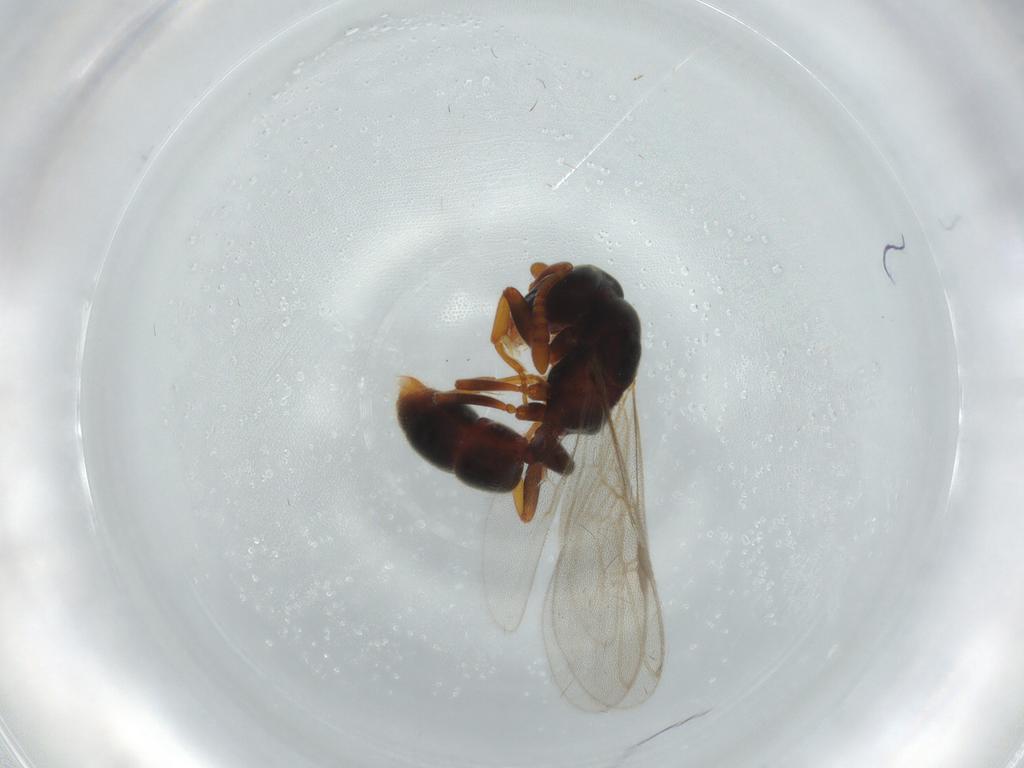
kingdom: Animalia
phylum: Arthropoda
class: Insecta
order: Hymenoptera
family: Formicidae
